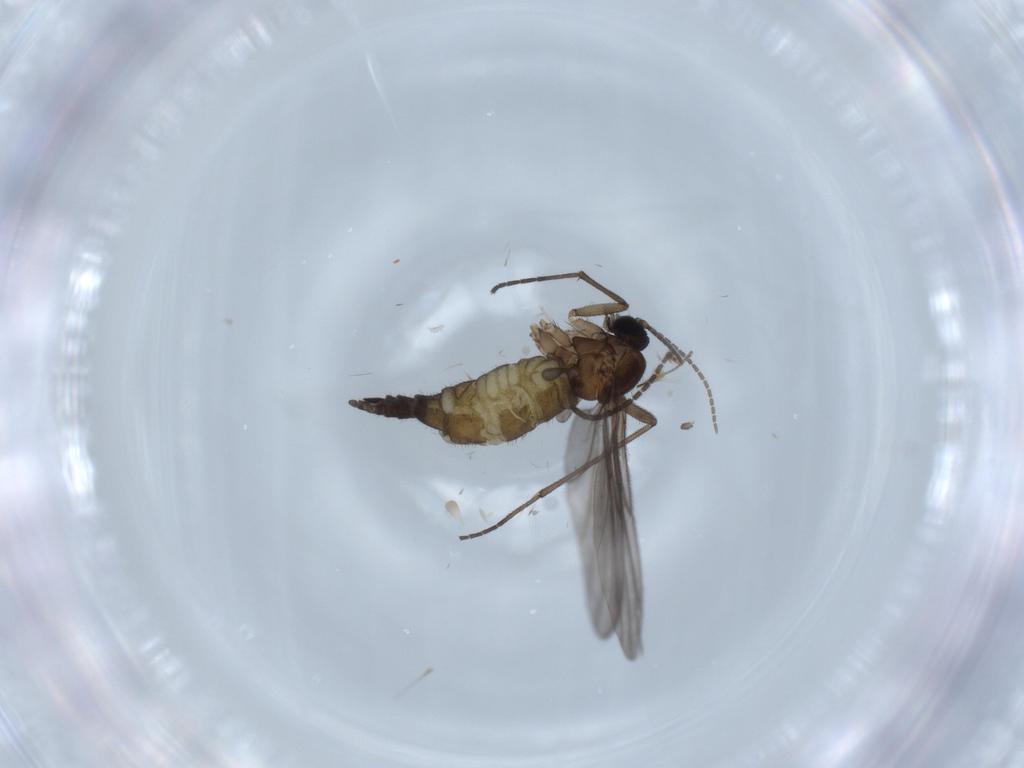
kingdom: Animalia
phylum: Arthropoda
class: Insecta
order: Diptera
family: Sciaridae
